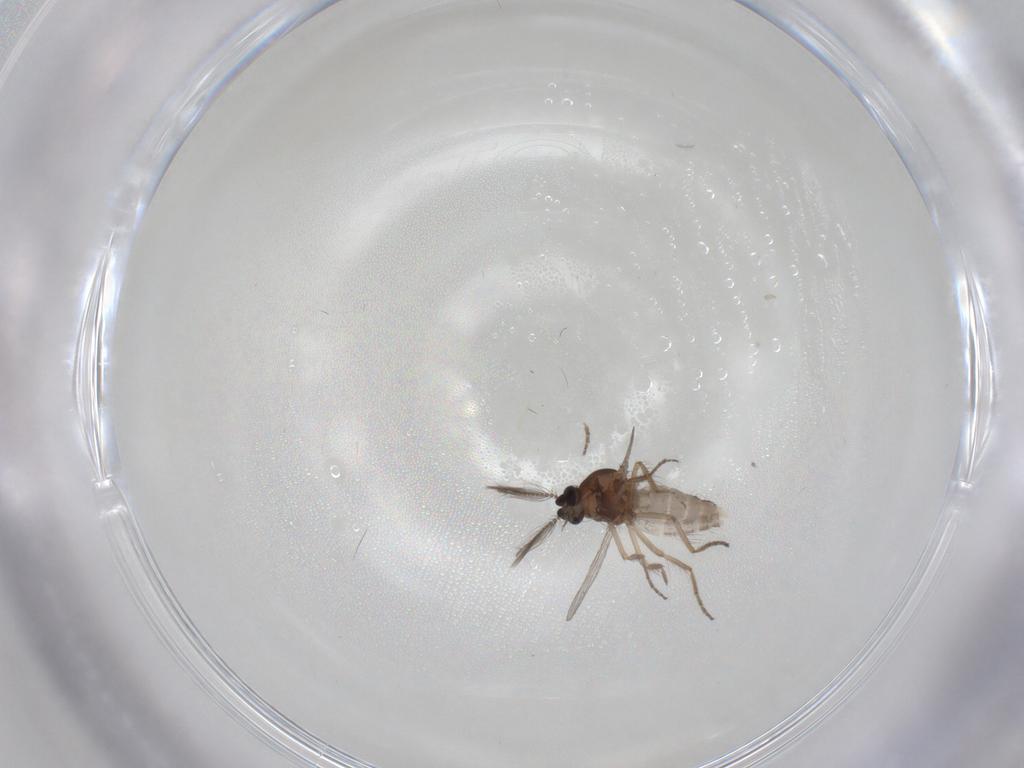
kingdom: Animalia
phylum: Arthropoda
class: Insecta
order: Diptera
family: Ceratopogonidae
